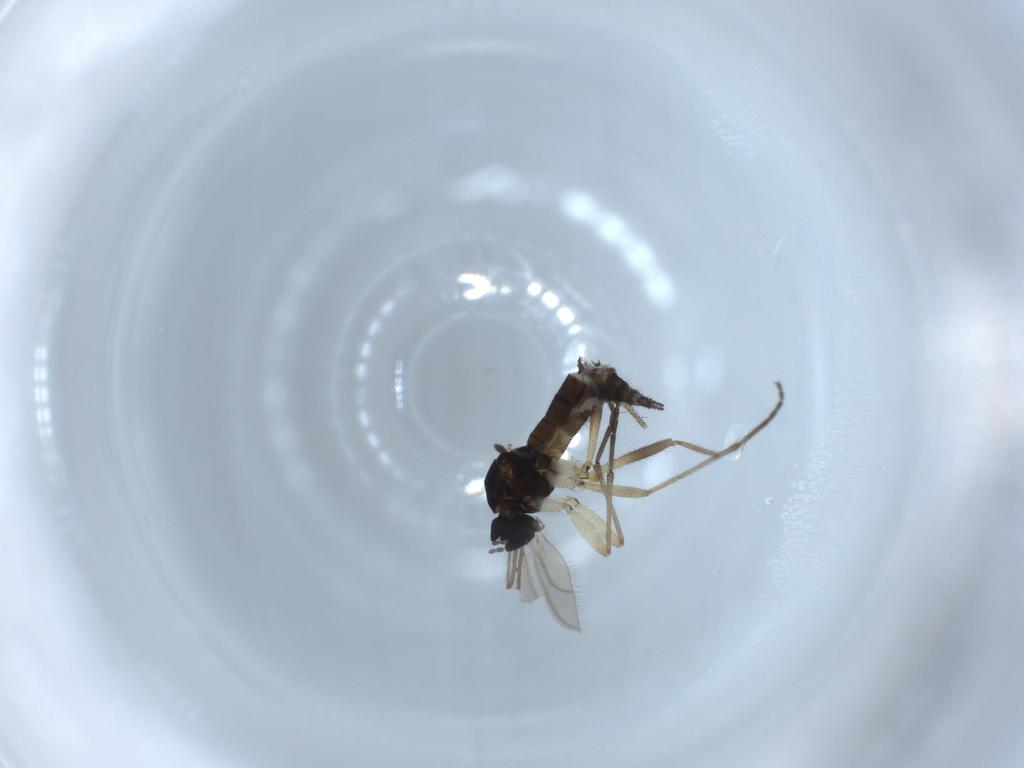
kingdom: Animalia
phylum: Arthropoda
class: Insecta
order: Diptera
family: Sciaridae
